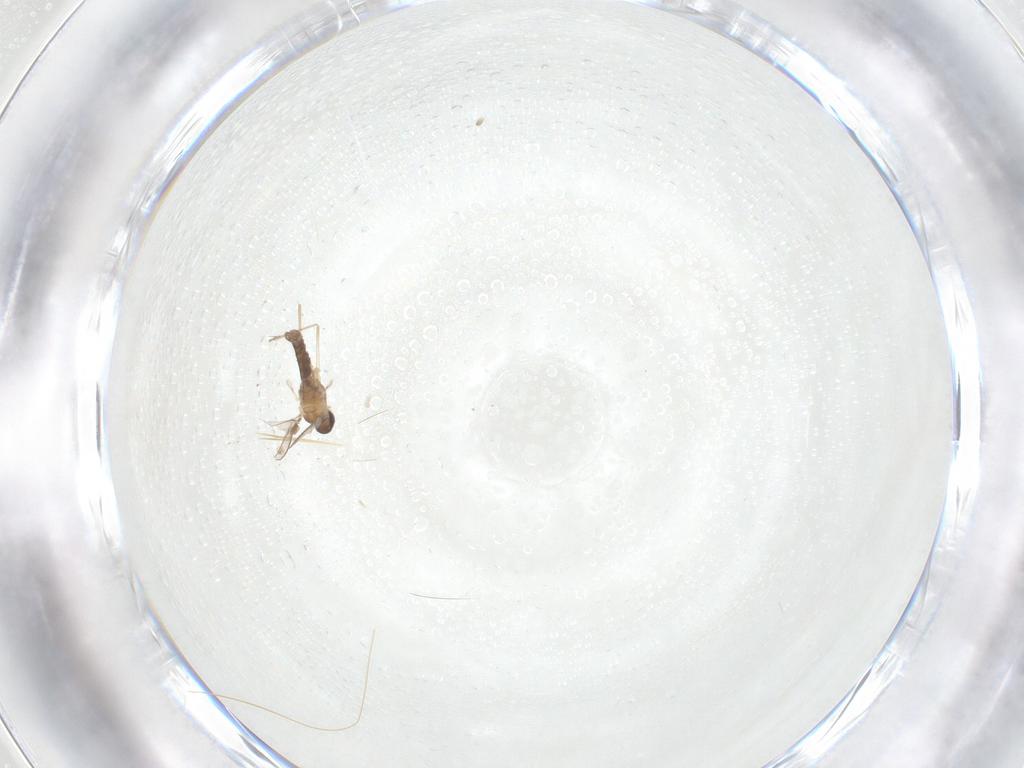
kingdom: Animalia
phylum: Arthropoda
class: Insecta
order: Diptera
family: Cecidomyiidae
